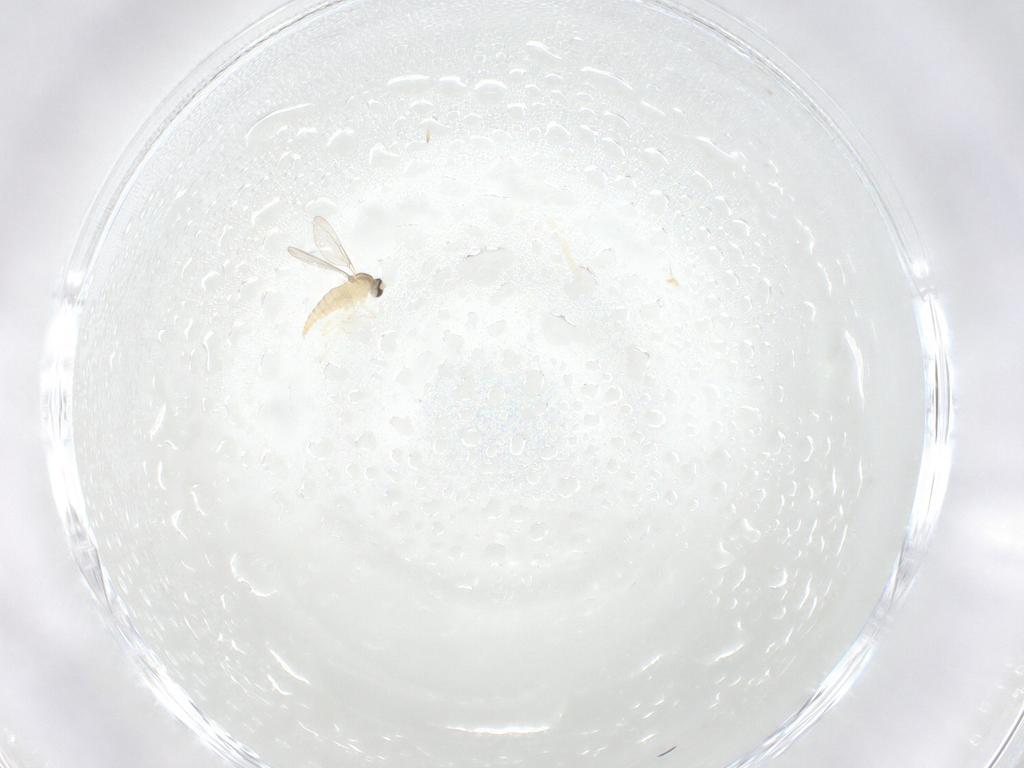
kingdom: Animalia
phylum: Arthropoda
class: Insecta
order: Diptera
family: Cecidomyiidae
